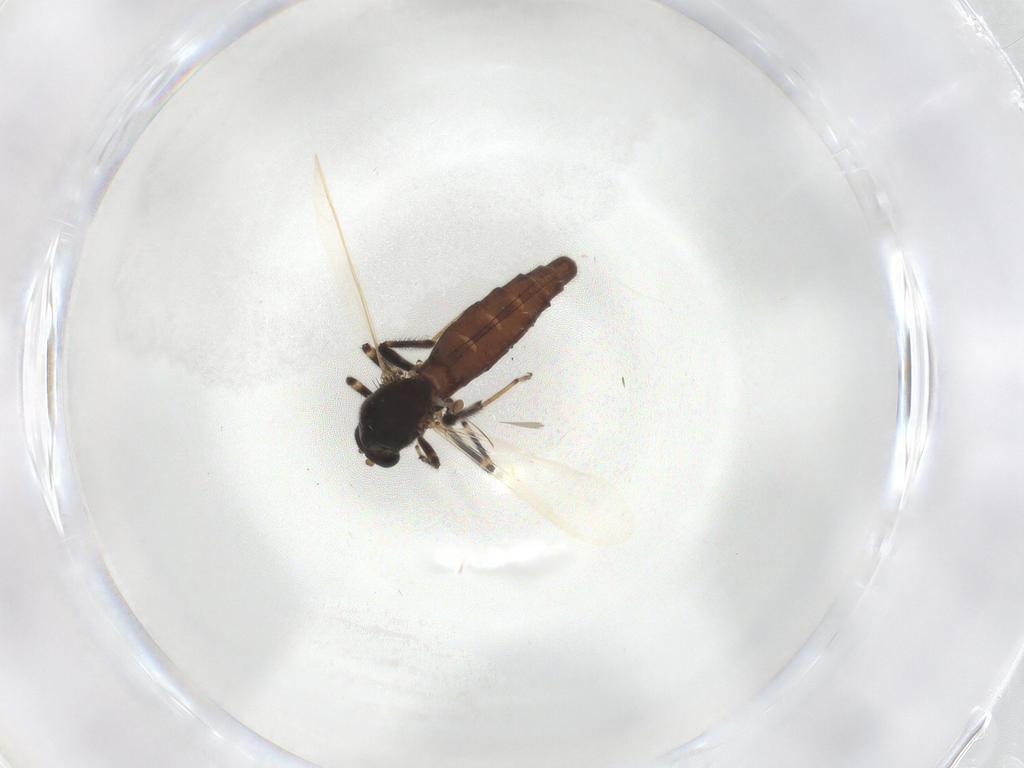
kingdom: Animalia
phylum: Arthropoda
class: Insecta
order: Diptera
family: Ceratopogonidae
